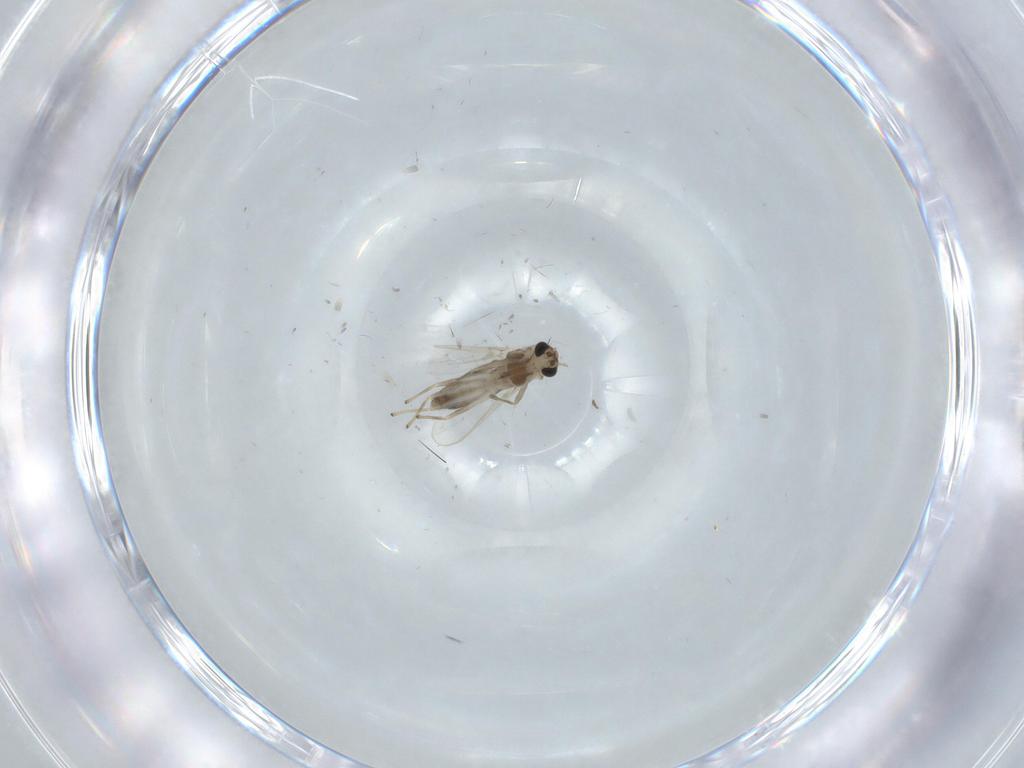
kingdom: Animalia
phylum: Arthropoda
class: Insecta
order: Diptera
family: Chironomidae
